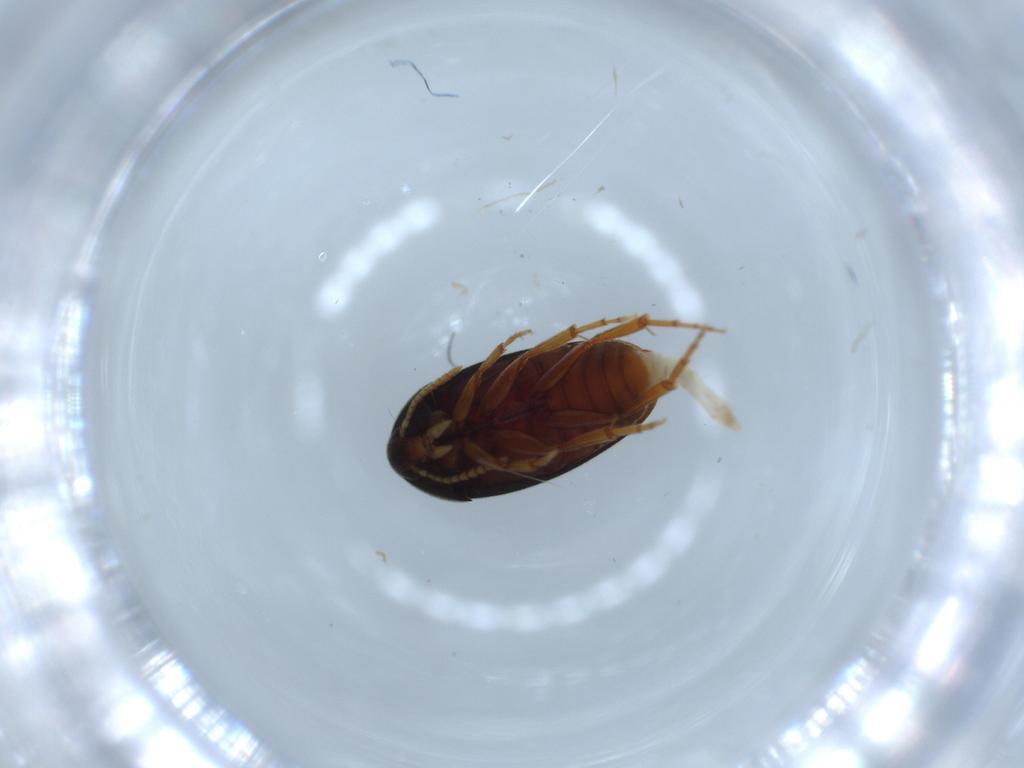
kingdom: Animalia
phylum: Arthropoda
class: Insecta
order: Coleoptera
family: Scraptiidae
